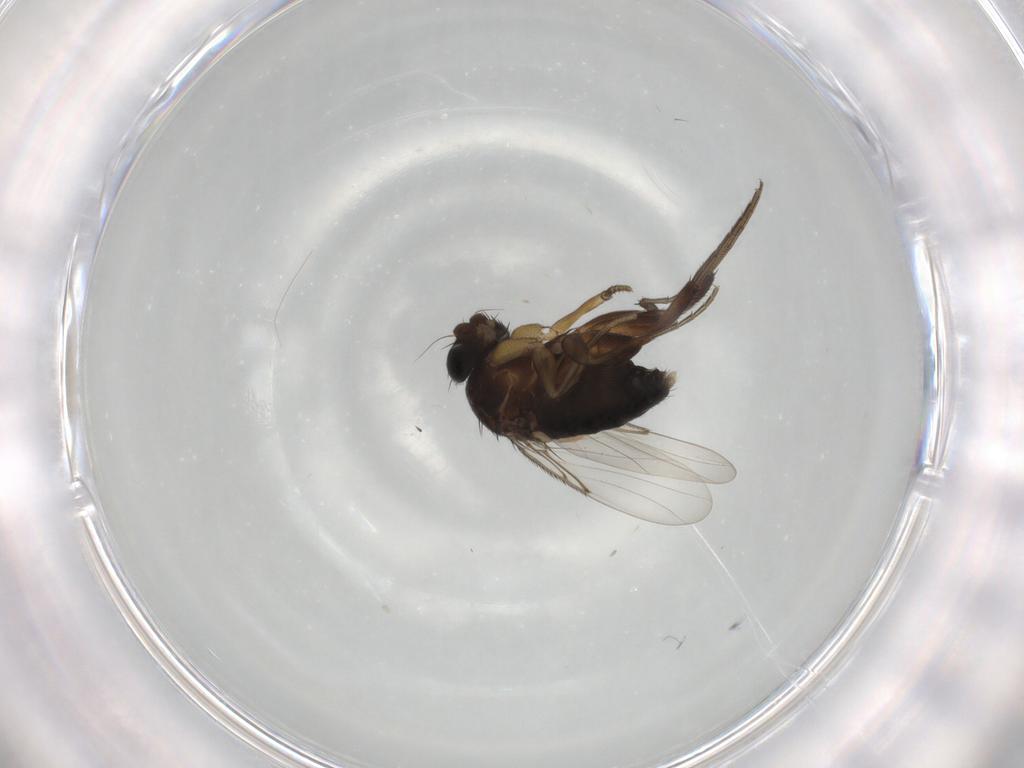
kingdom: Animalia
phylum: Arthropoda
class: Insecta
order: Diptera
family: Phoridae
